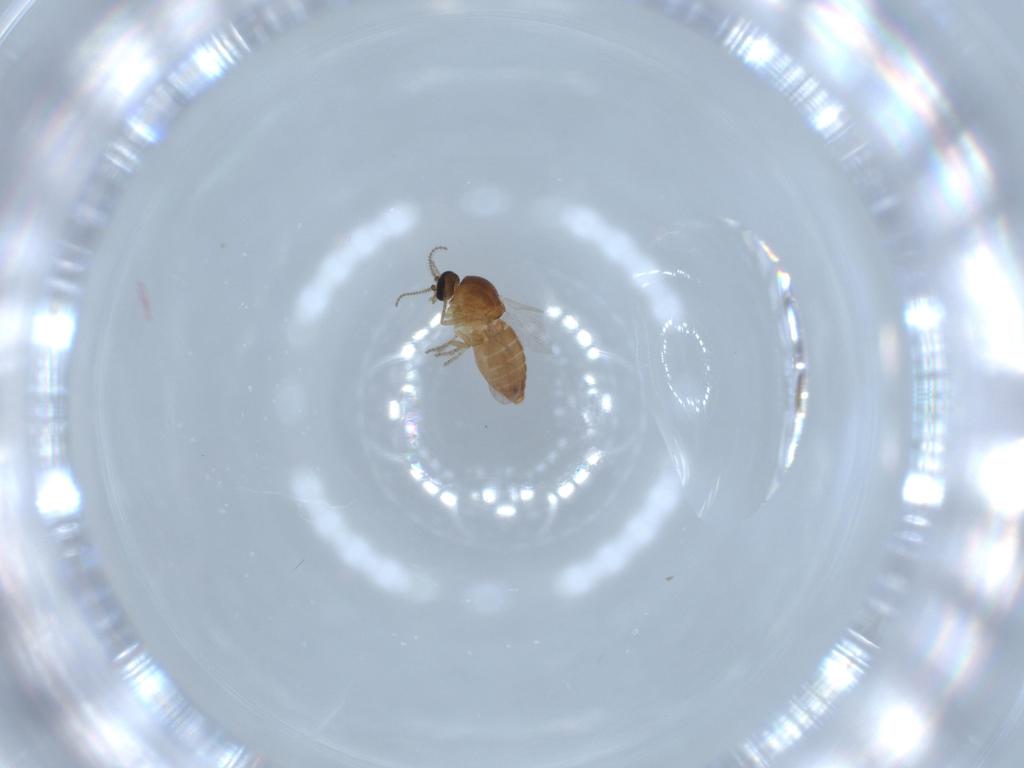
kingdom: Animalia
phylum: Arthropoda
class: Insecta
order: Diptera
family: Ceratopogonidae
